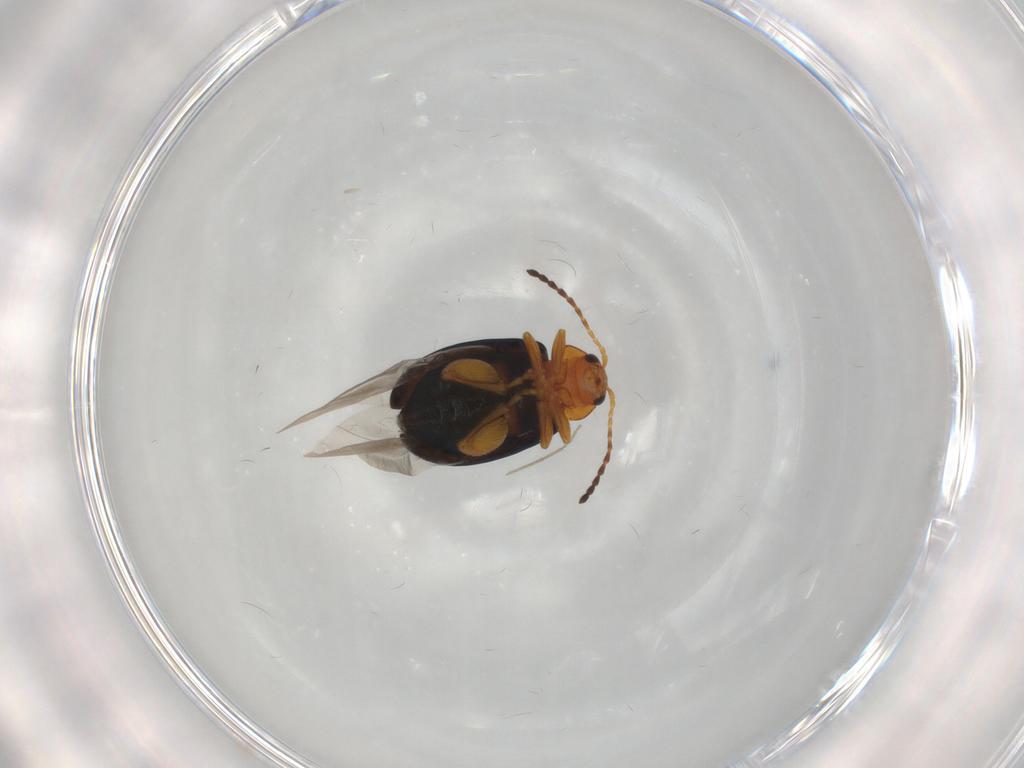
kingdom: Animalia
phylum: Arthropoda
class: Insecta
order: Coleoptera
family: Chrysomelidae
